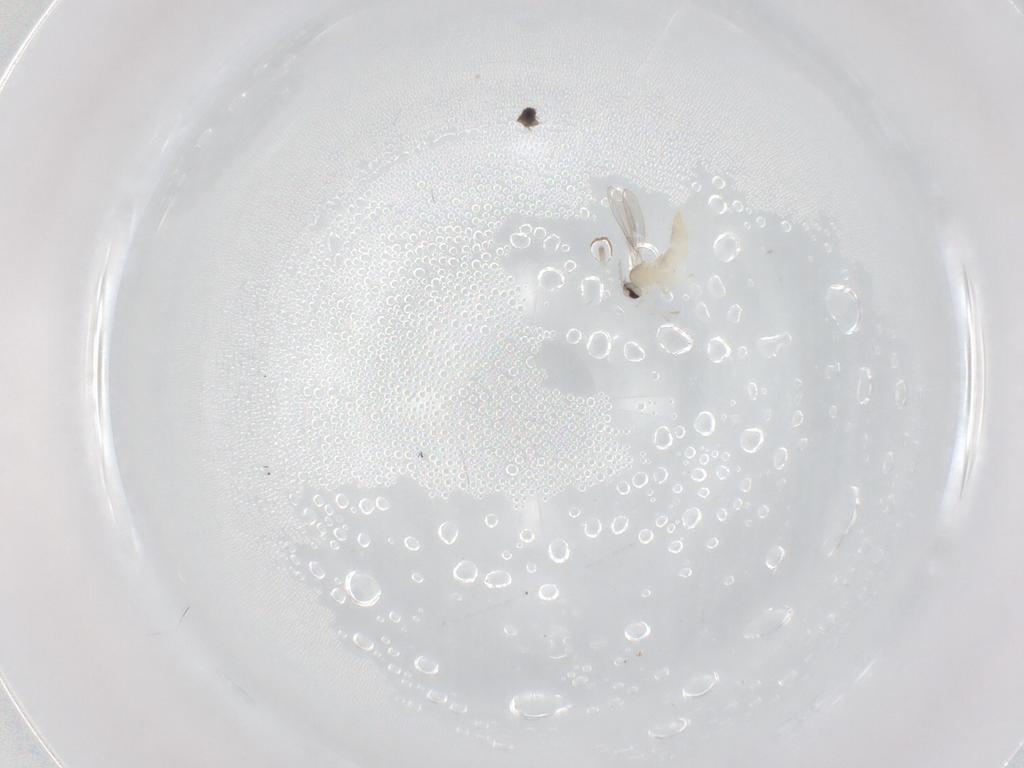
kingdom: Animalia
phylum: Arthropoda
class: Insecta
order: Diptera
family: Cecidomyiidae
